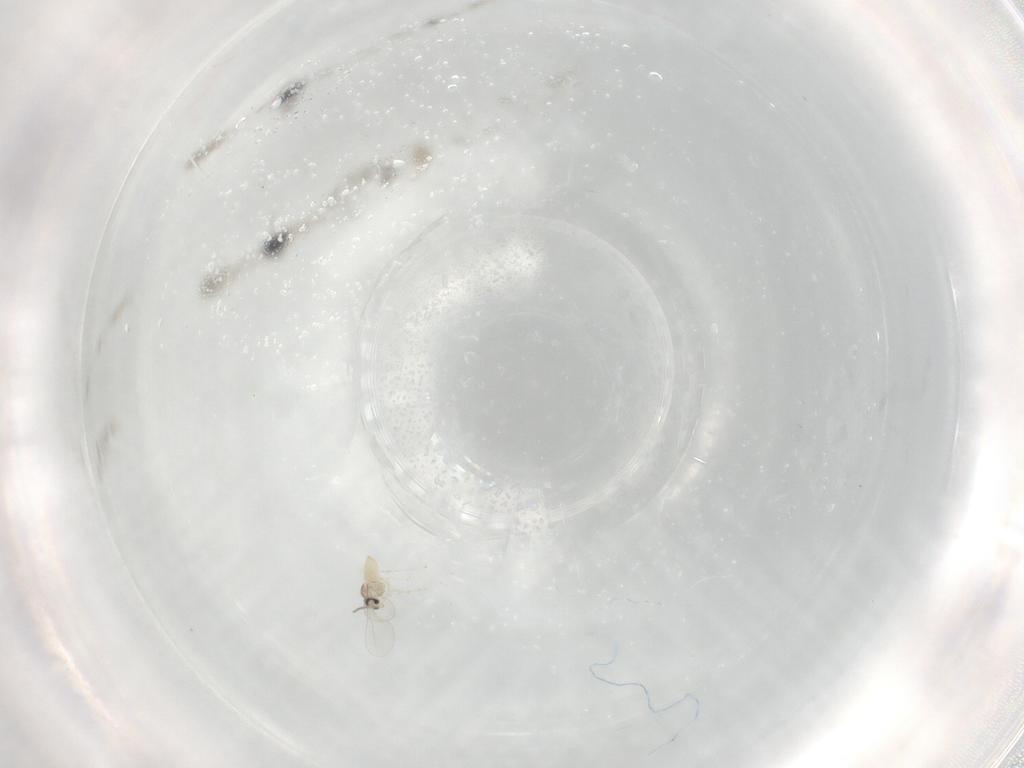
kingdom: Animalia
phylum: Arthropoda
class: Insecta
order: Diptera
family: Cecidomyiidae
